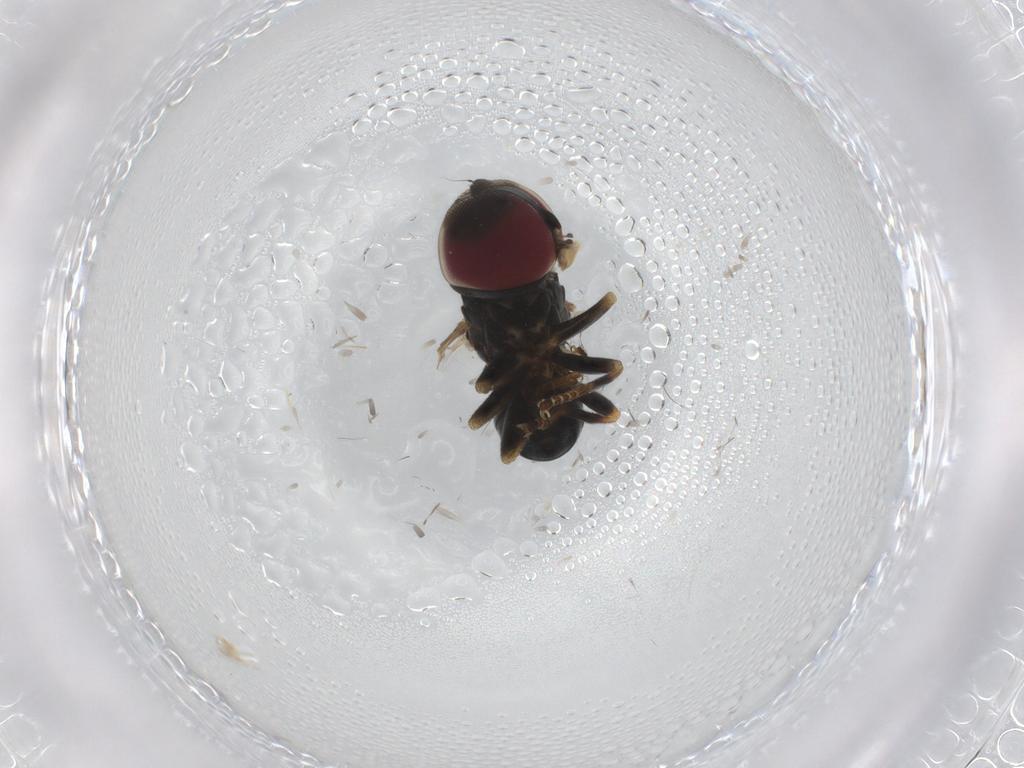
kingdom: Animalia
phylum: Arthropoda
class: Insecta
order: Diptera
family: Pipunculidae
